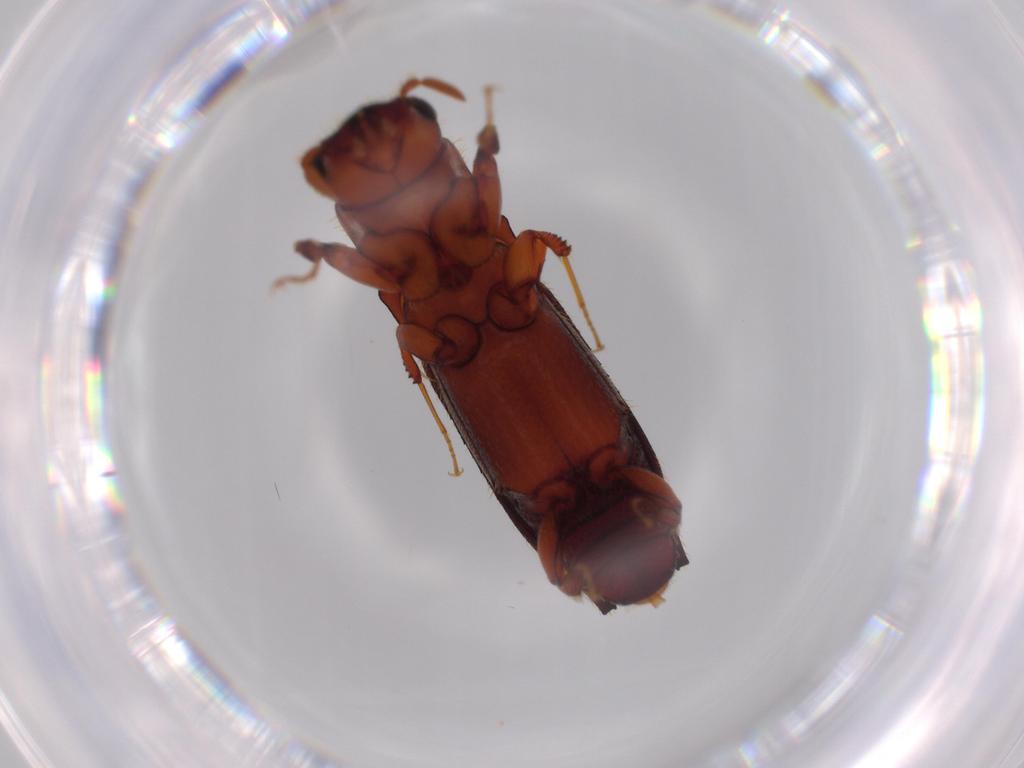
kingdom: Animalia
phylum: Arthropoda
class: Insecta
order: Coleoptera
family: Curculionidae
